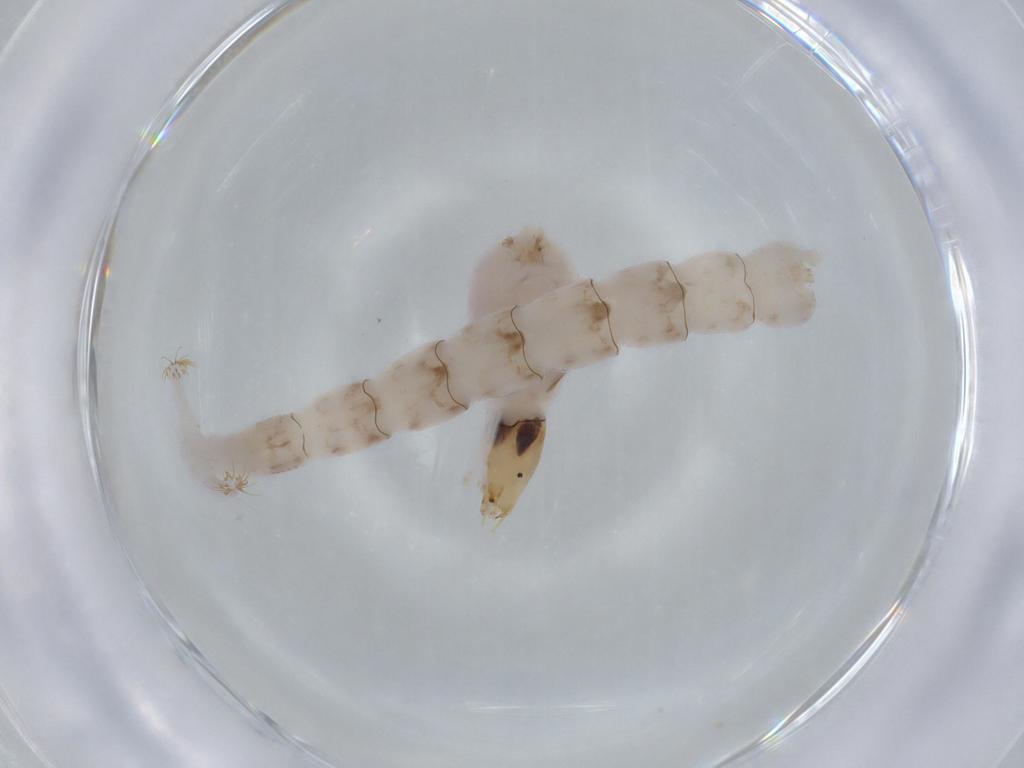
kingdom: Animalia
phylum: Arthropoda
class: Insecta
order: Diptera
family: Chironomidae
